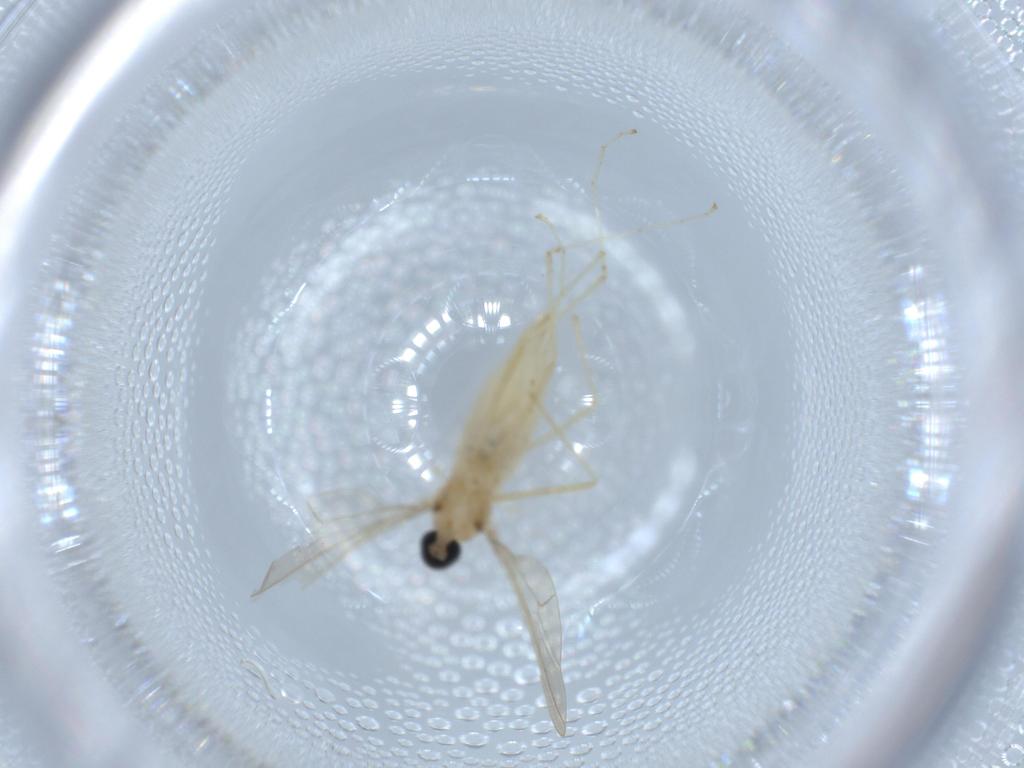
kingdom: Animalia
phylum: Arthropoda
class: Insecta
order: Diptera
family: Cecidomyiidae
